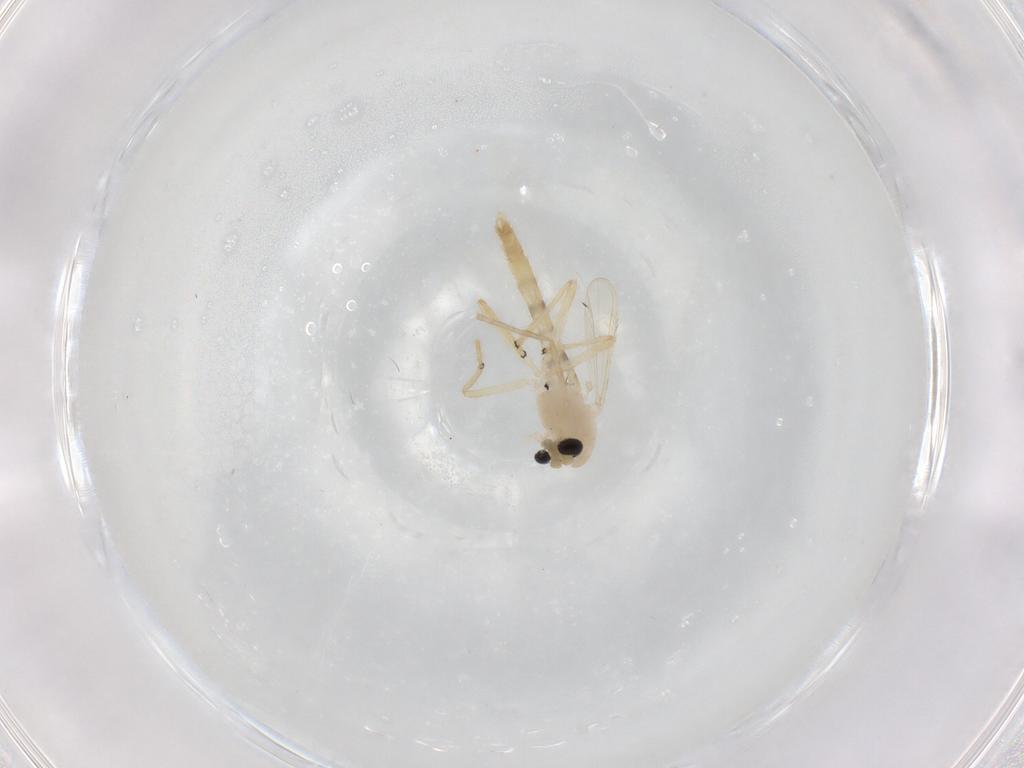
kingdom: Animalia
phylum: Arthropoda
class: Insecta
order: Diptera
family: Chironomidae
